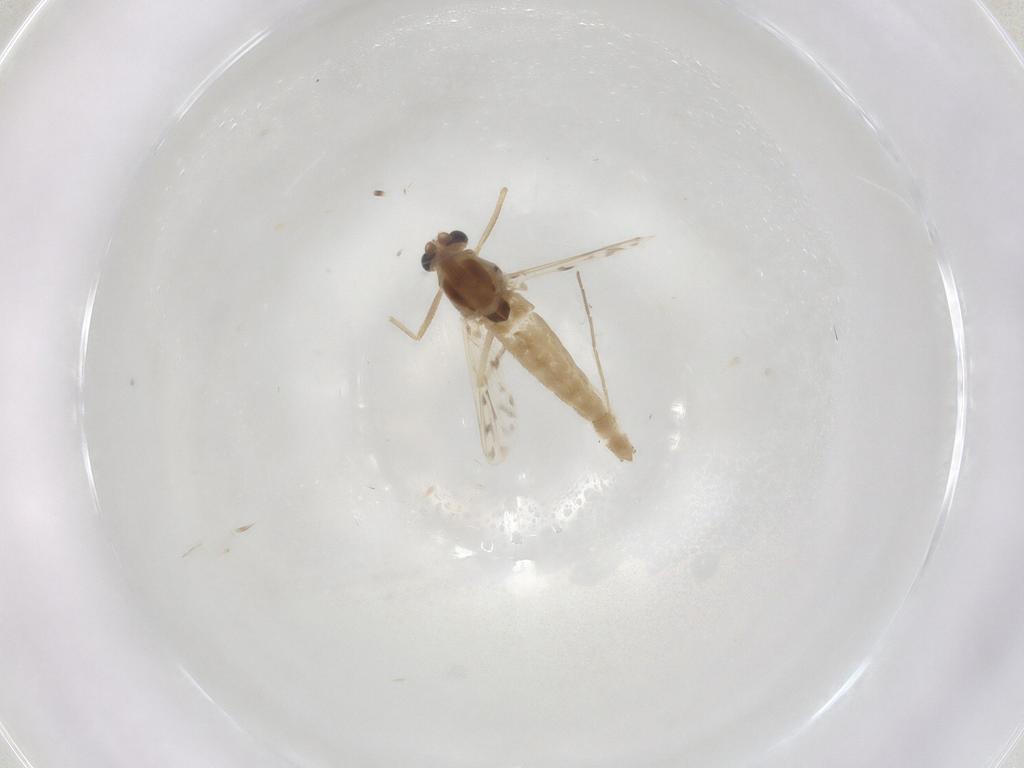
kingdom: Animalia
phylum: Arthropoda
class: Insecta
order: Diptera
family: Chironomidae
